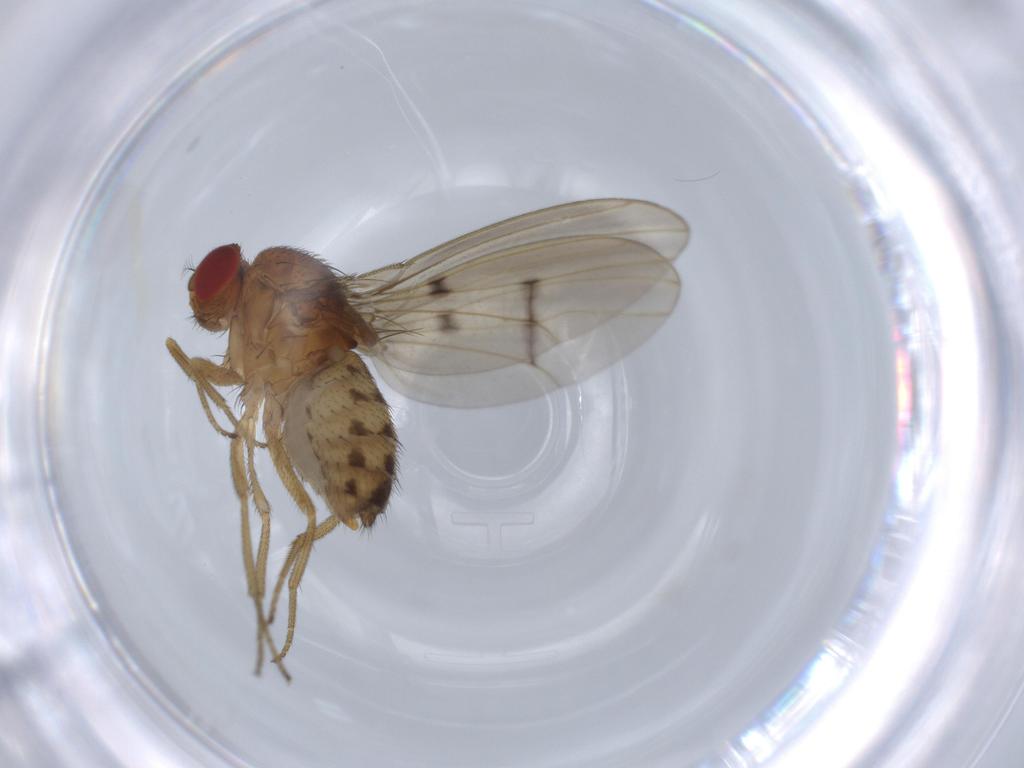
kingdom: Animalia
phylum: Arthropoda
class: Insecta
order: Diptera
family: Drosophilidae
